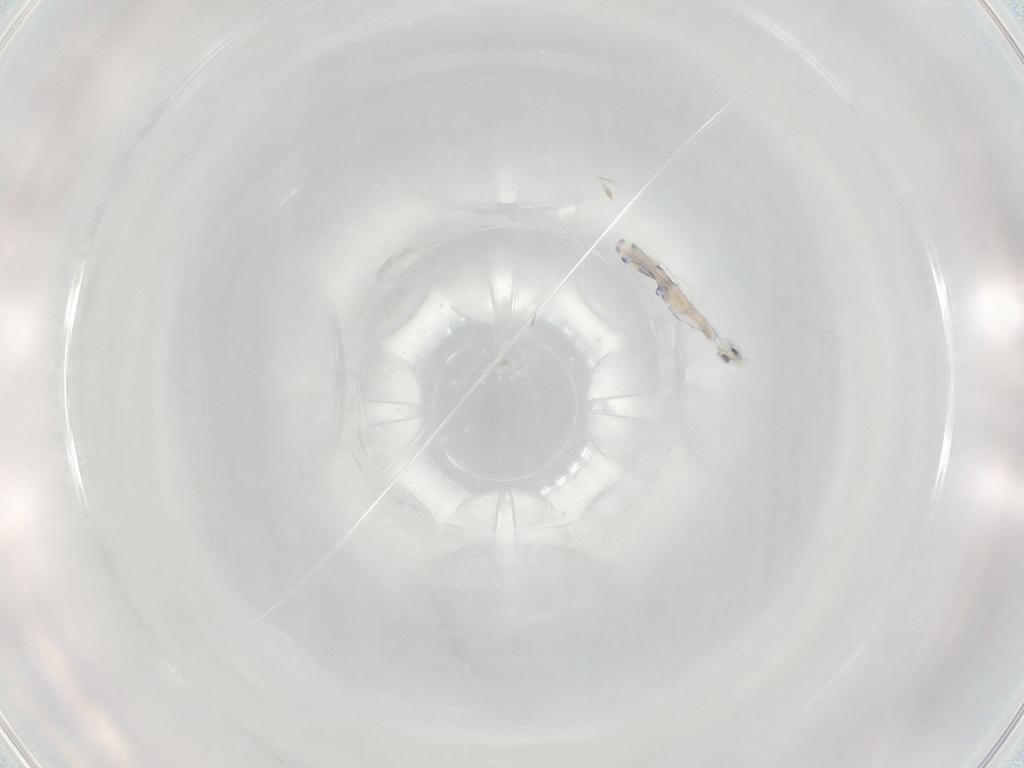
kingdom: Animalia
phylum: Arthropoda
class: Collembola
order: Entomobryomorpha
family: Entomobryidae
